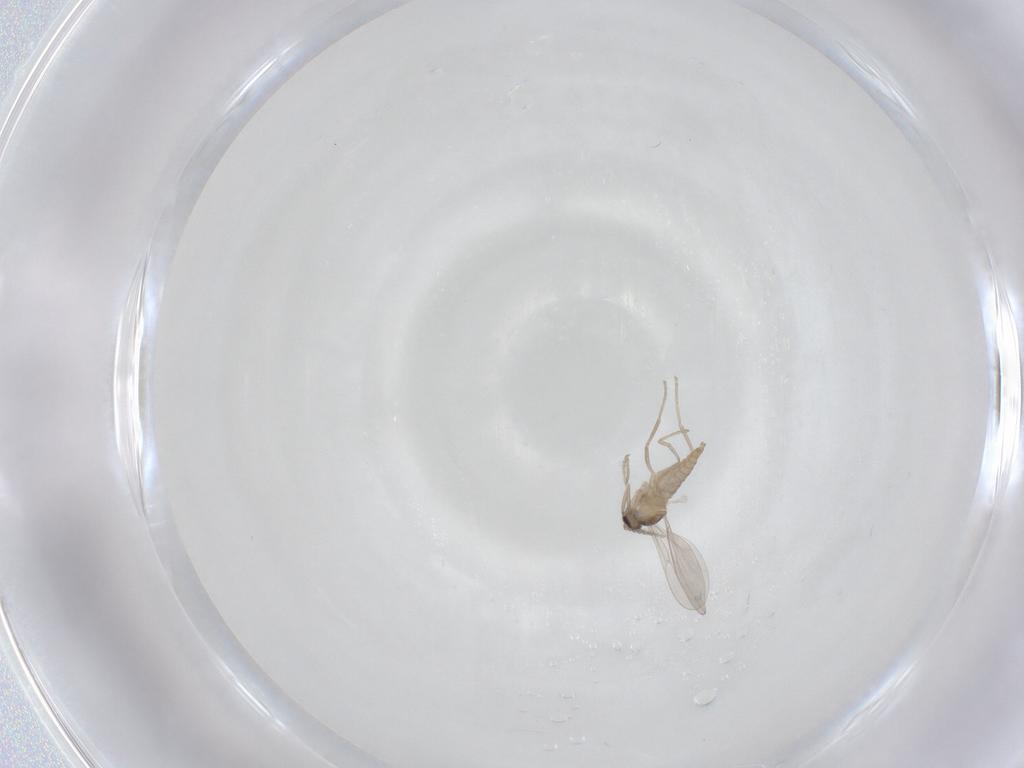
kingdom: Animalia
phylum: Arthropoda
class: Insecta
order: Diptera
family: Cecidomyiidae
